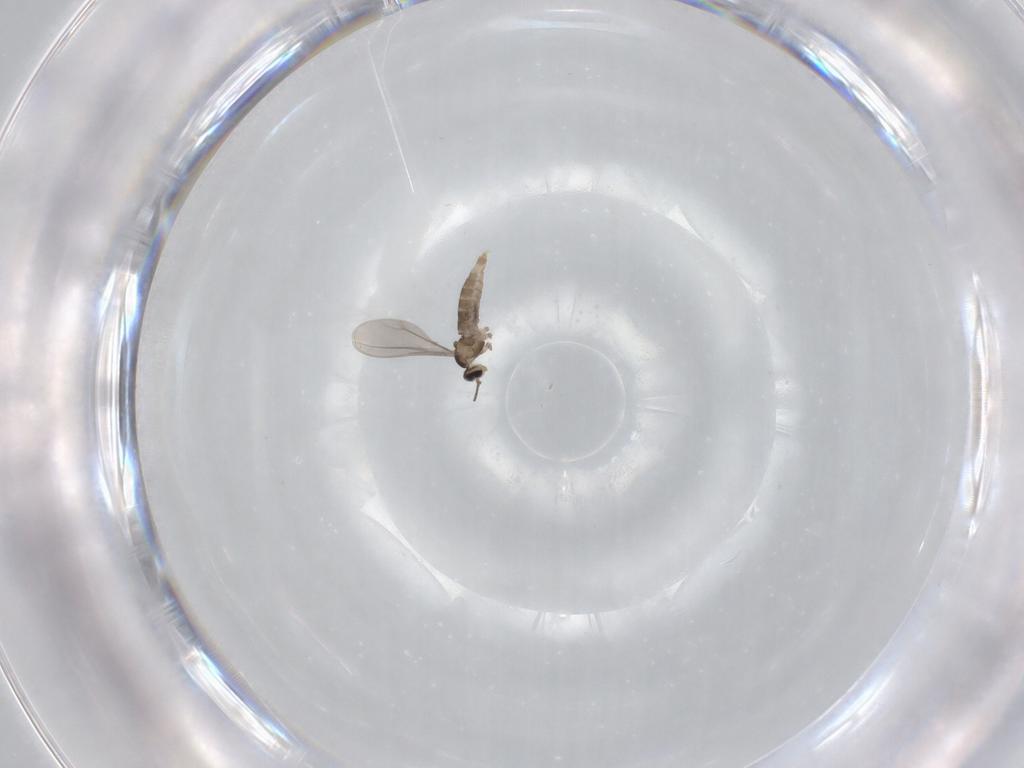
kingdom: Animalia
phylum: Arthropoda
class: Insecta
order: Diptera
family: Sphaeroceridae
